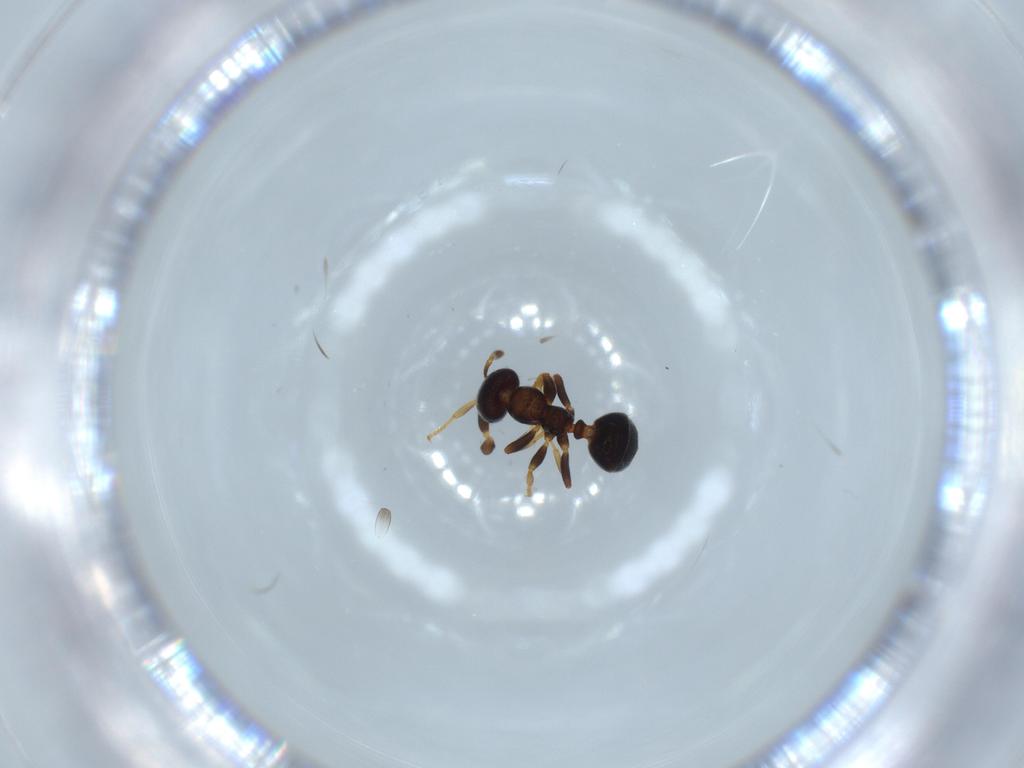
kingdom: Animalia
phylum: Arthropoda
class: Insecta
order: Hymenoptera
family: Formicidae
